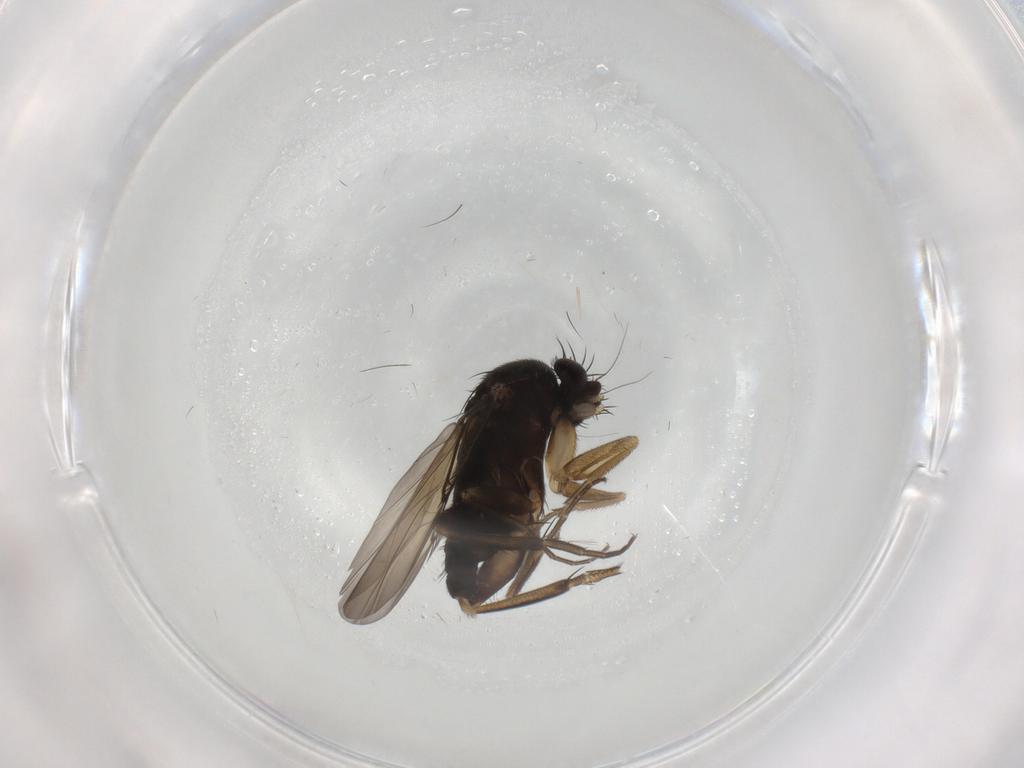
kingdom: Animalia
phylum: Arthropoda
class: Insecta
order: Diptera
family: Phoridae
